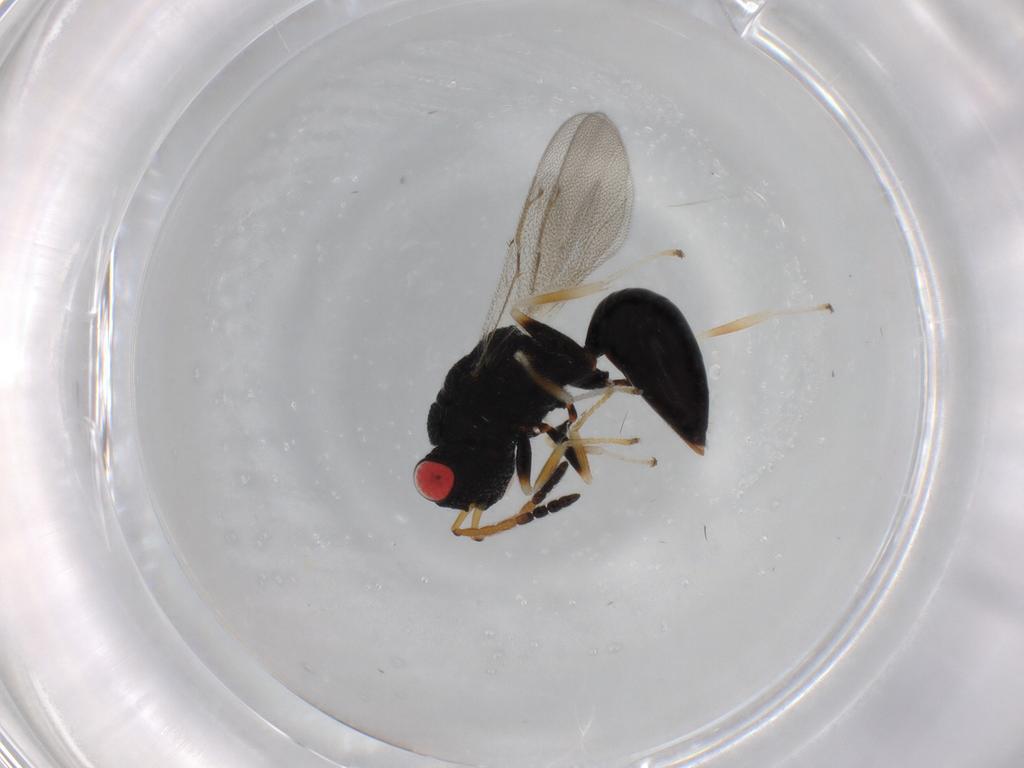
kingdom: Animalia
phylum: Arthropoda
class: Insecta
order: Hymenoptera
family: Eurytomidae
